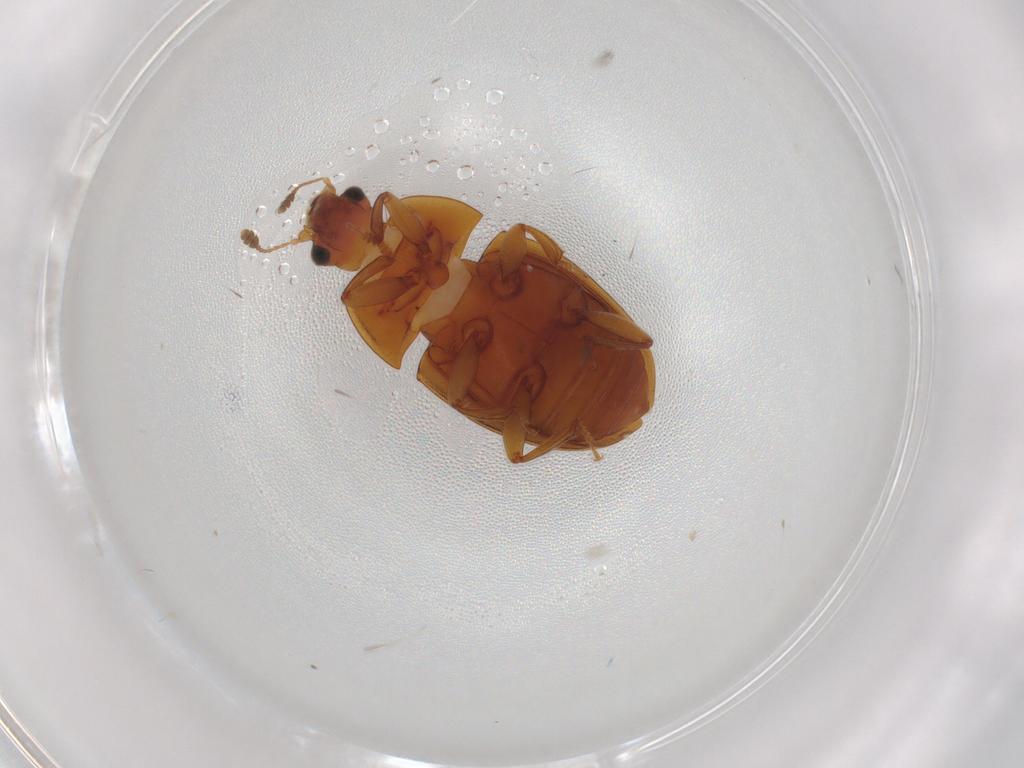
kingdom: Animalia
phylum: Arthropoda
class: Insecta
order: Coleoptera
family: Nitidulidae
